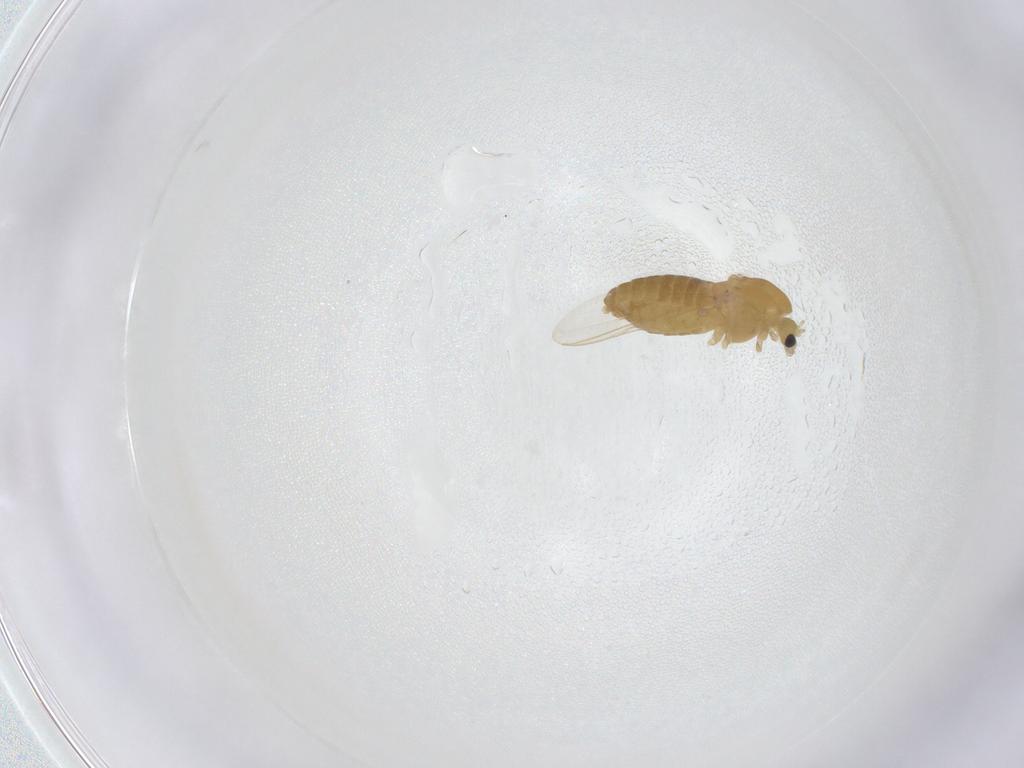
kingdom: Animalia
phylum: Arthropoda
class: Insecta
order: Diptera
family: Chironomidae
